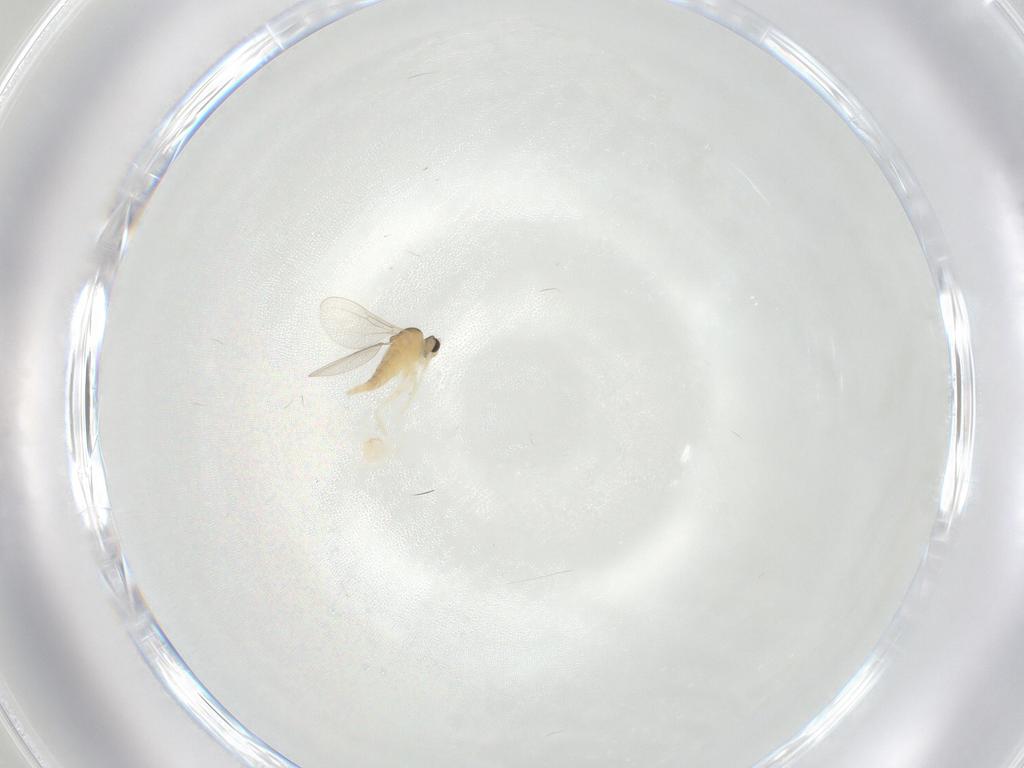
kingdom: Animalia
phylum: Arthropoda
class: Insecta
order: Diptera
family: Cecidomyiidae
